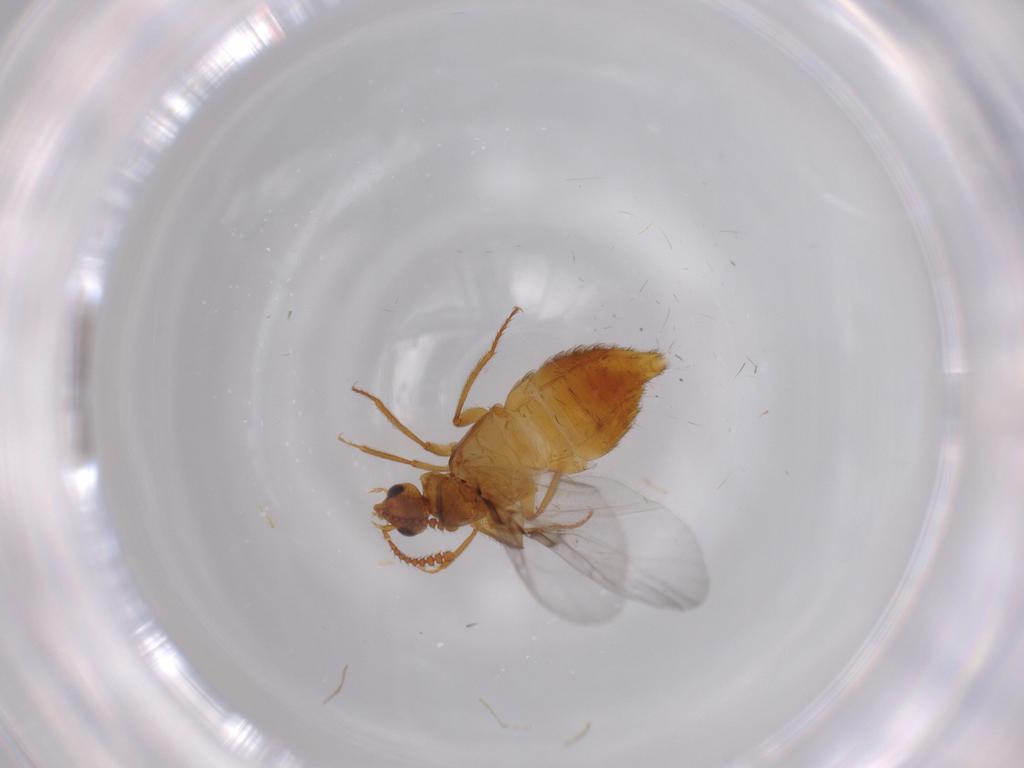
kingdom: Animalia
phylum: Arthropoda
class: Insecta
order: Coleoptera
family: Staphylinidae
